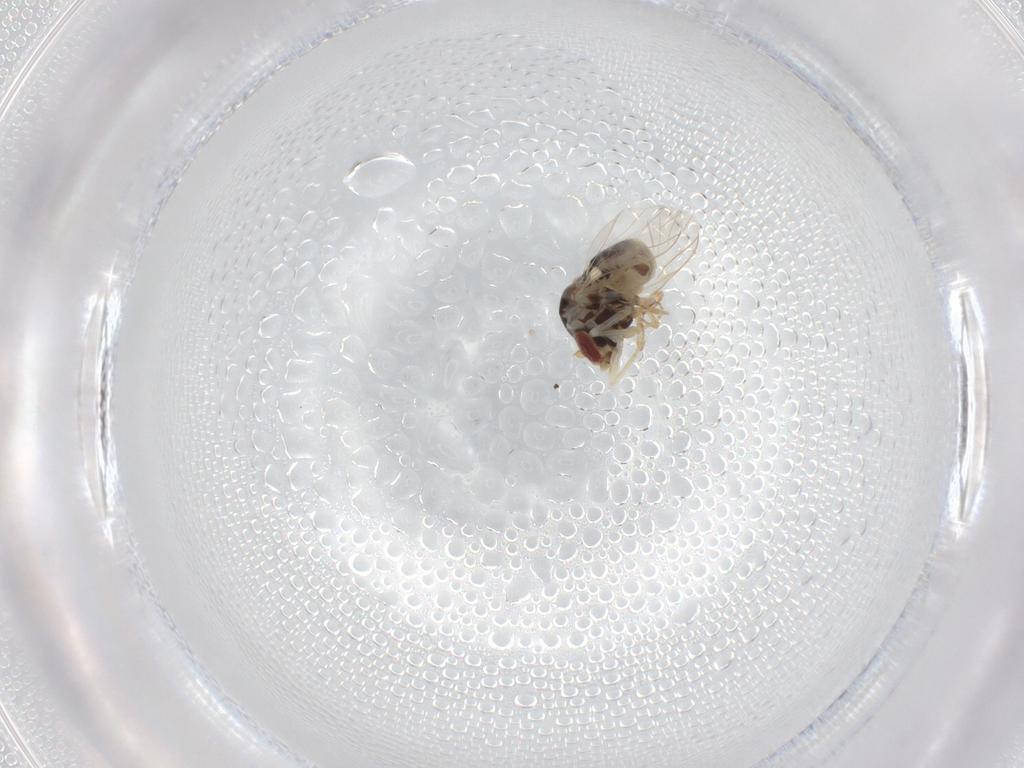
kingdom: Animalia
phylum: Arthropoda
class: Insecta
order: Diptera
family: Bombyliidae
